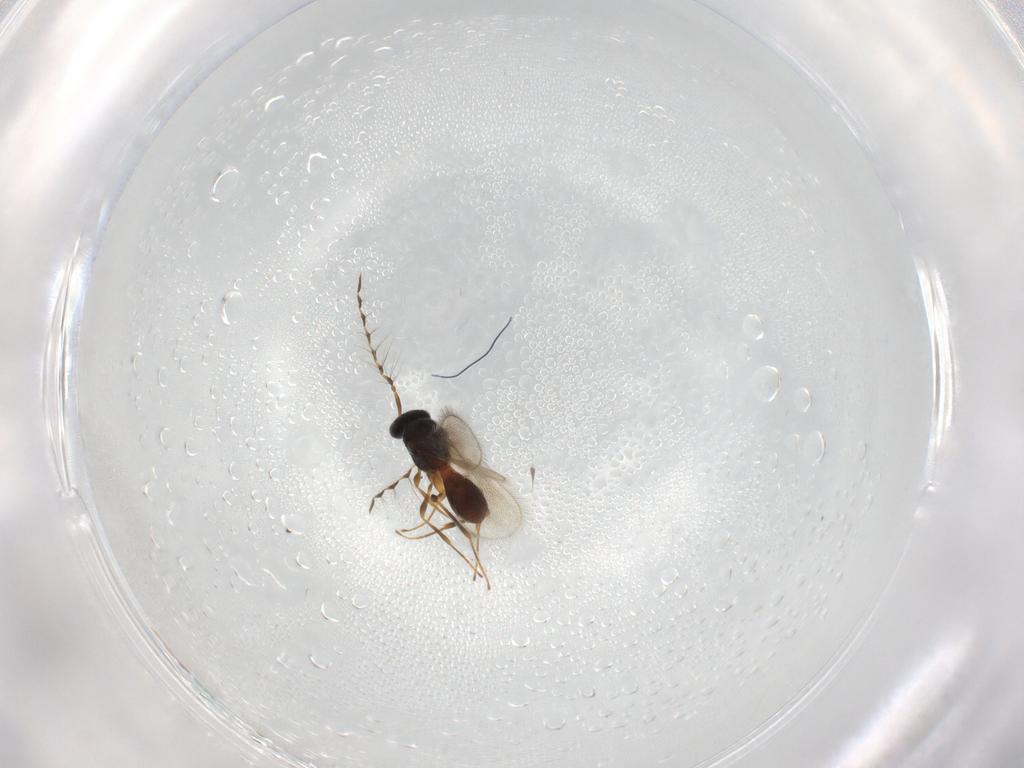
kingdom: Animalia
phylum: Arthropoda
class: Insecta
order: Hymenoptera
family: Platygastridae
